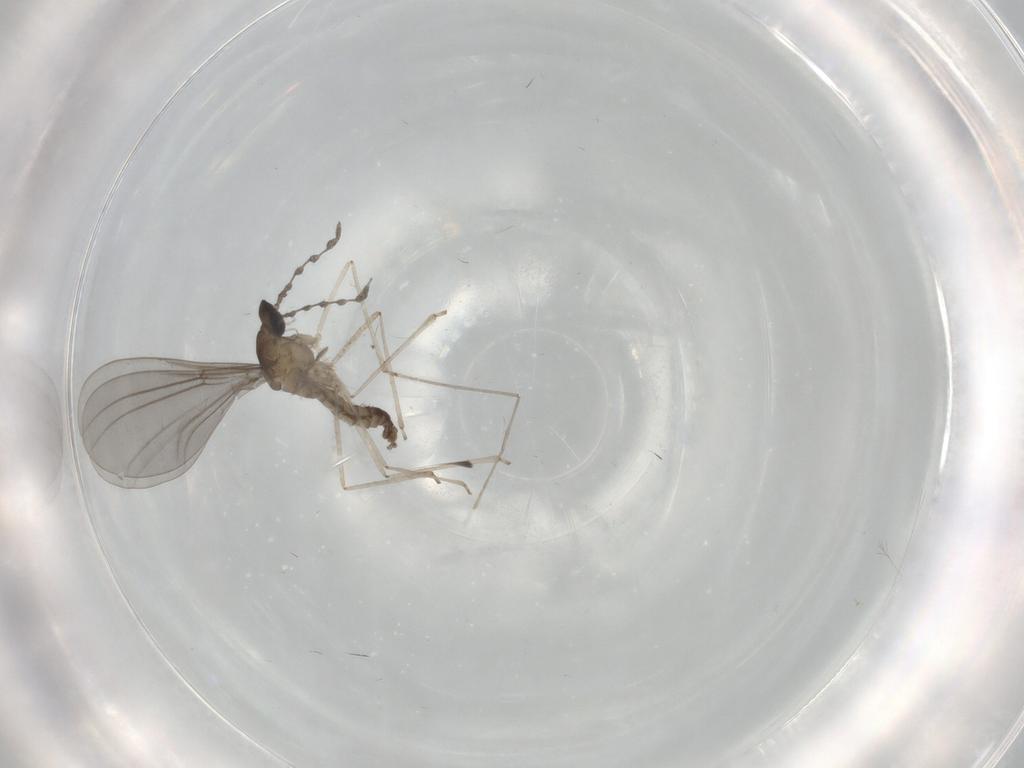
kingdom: Animalia
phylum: Arthropoda
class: Insecta
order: Diptera
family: Cecidomyiidae
